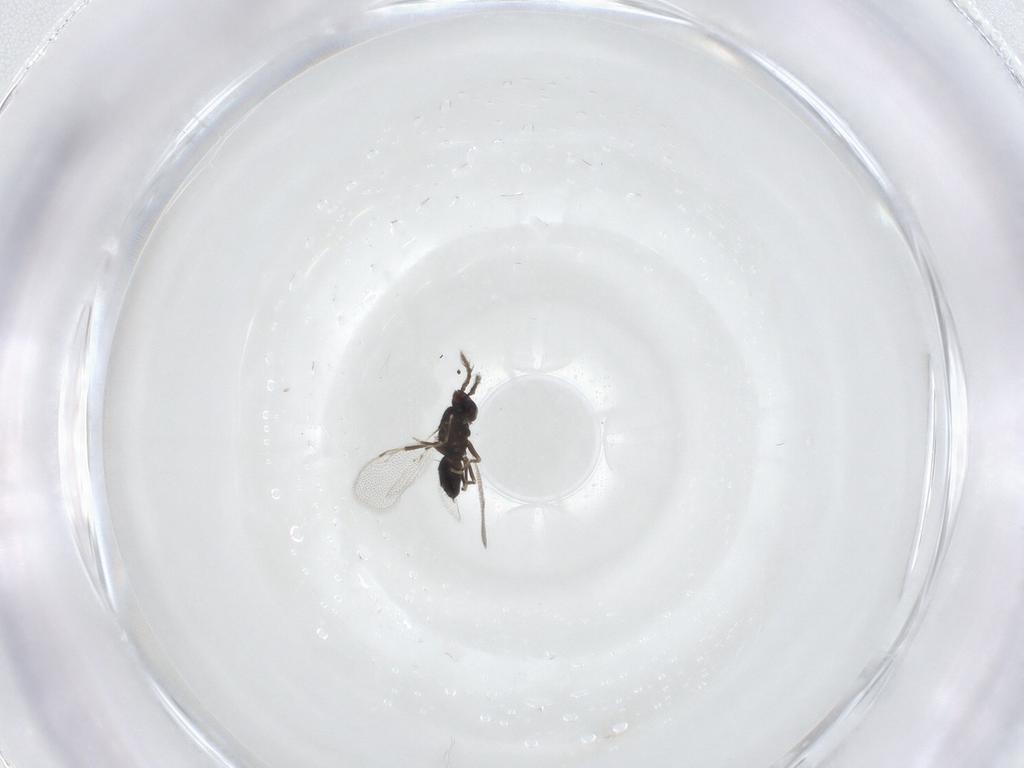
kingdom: Animalia
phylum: Arthropoda
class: Insecta
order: Hymenoptera
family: Eulophidae
